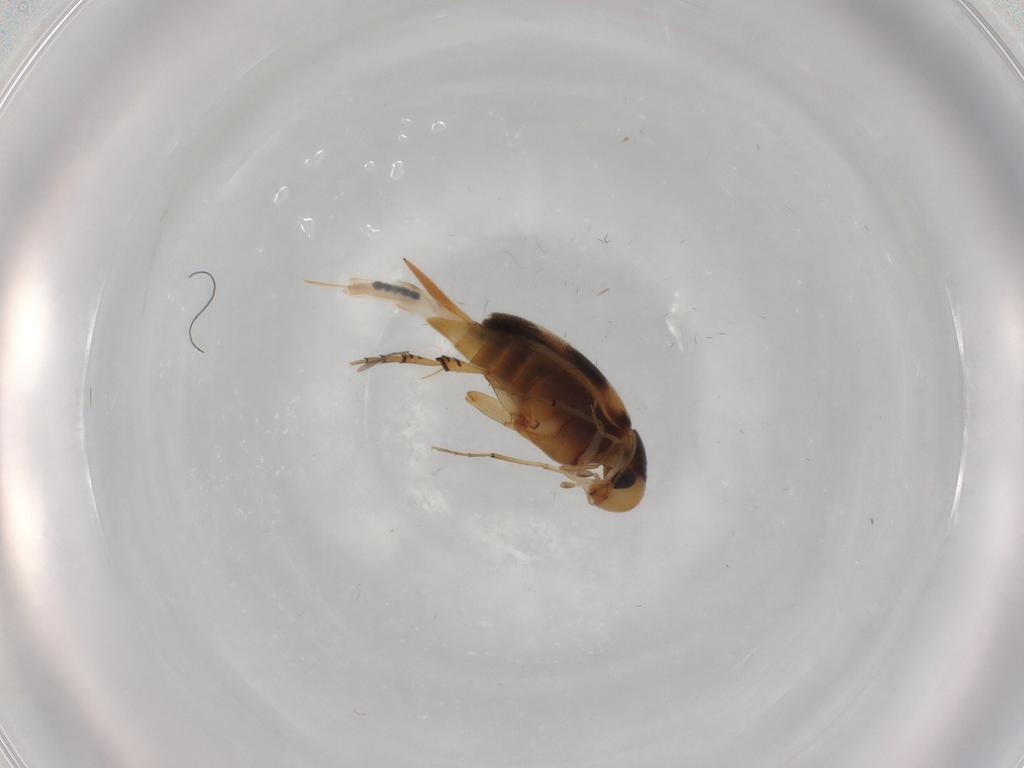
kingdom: Animalia
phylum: Arthropoda
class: Insecta
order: Coleoptera
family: Mordellidae
